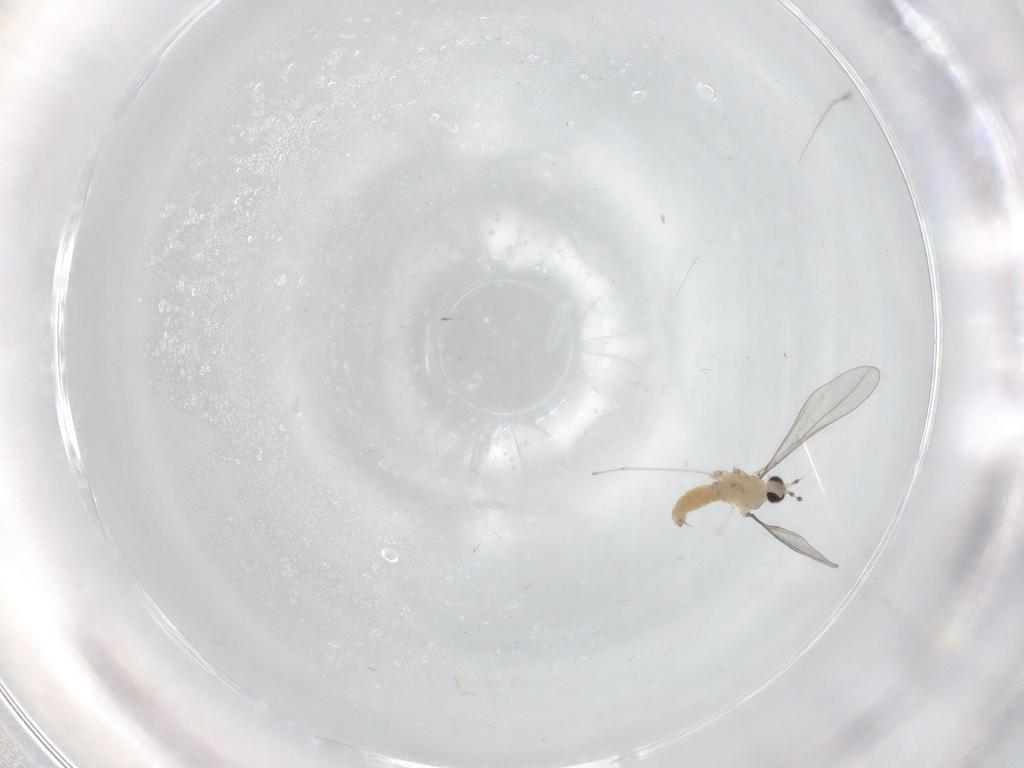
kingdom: Animalia
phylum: Arthropoda
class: Insecta
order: Diptera
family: Cecidomyiidae
